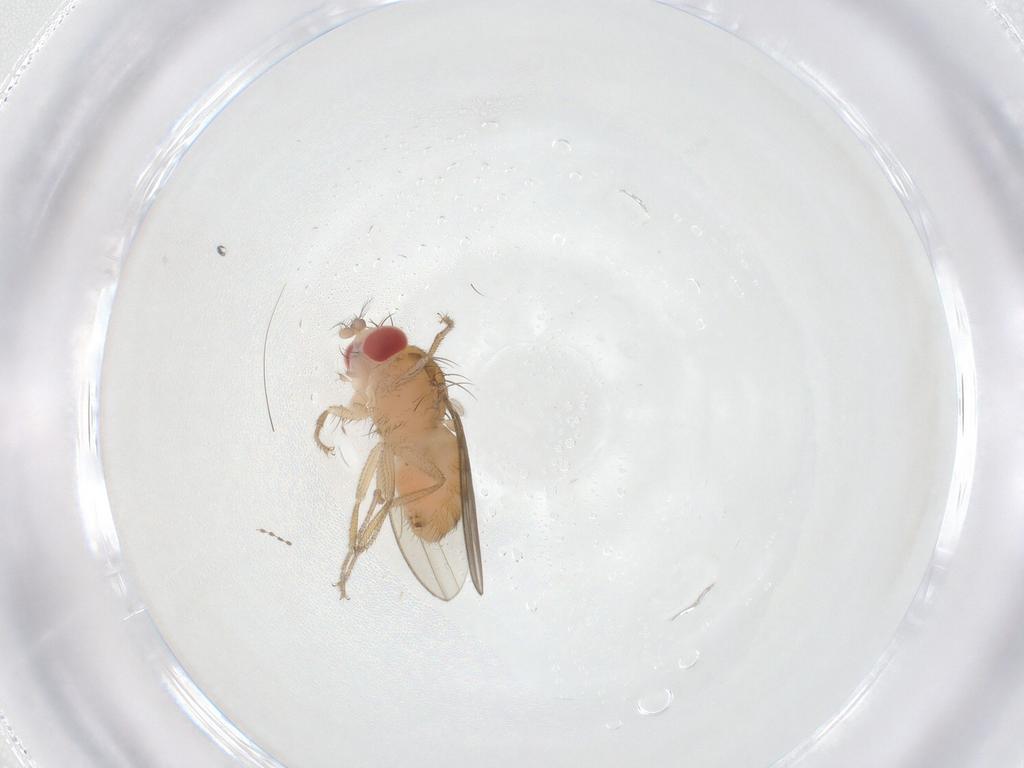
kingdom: Animalia
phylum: Arthropoda
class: Insecta
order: Diptera
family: Drosophilidae
